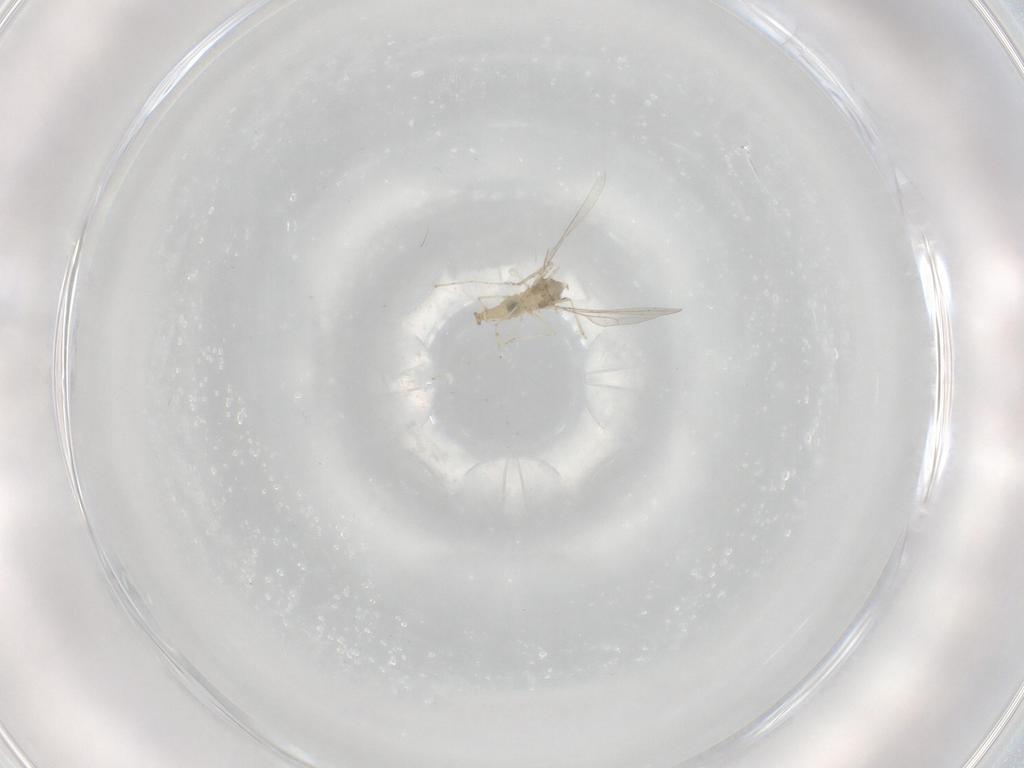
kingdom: Animalia
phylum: Arthropoda
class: Insecta
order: Diptera
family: Cecidomyiidae
